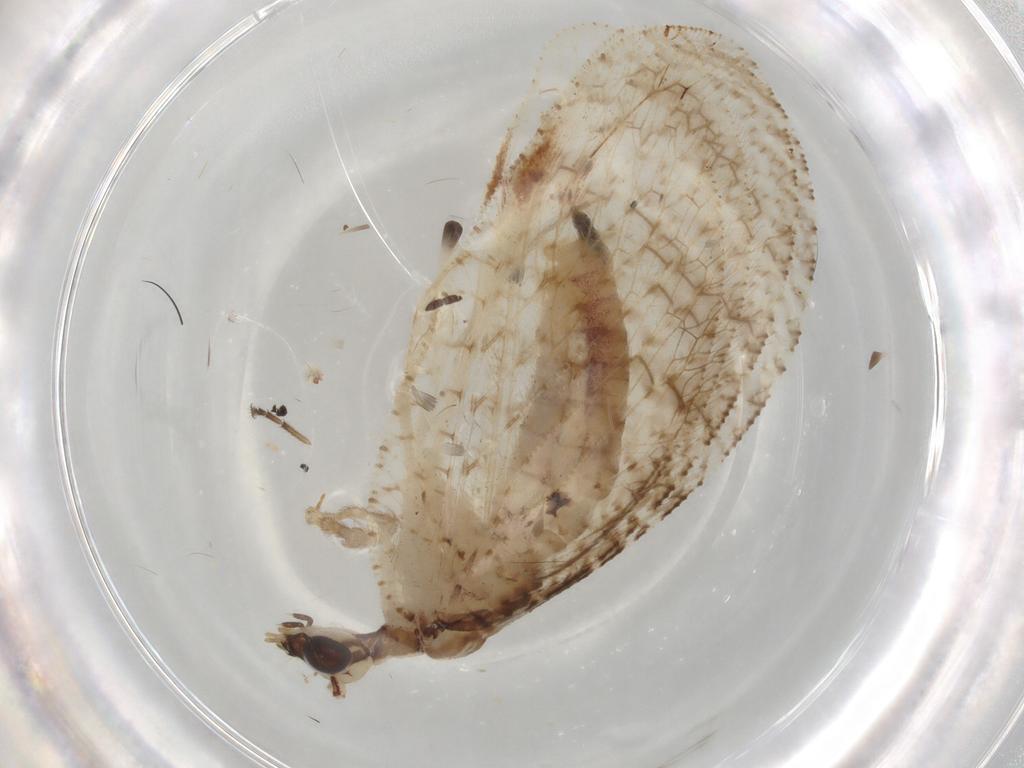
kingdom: Animalia
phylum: Arthropoda
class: Insecta
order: Neuroptera
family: Hemerobiidae
